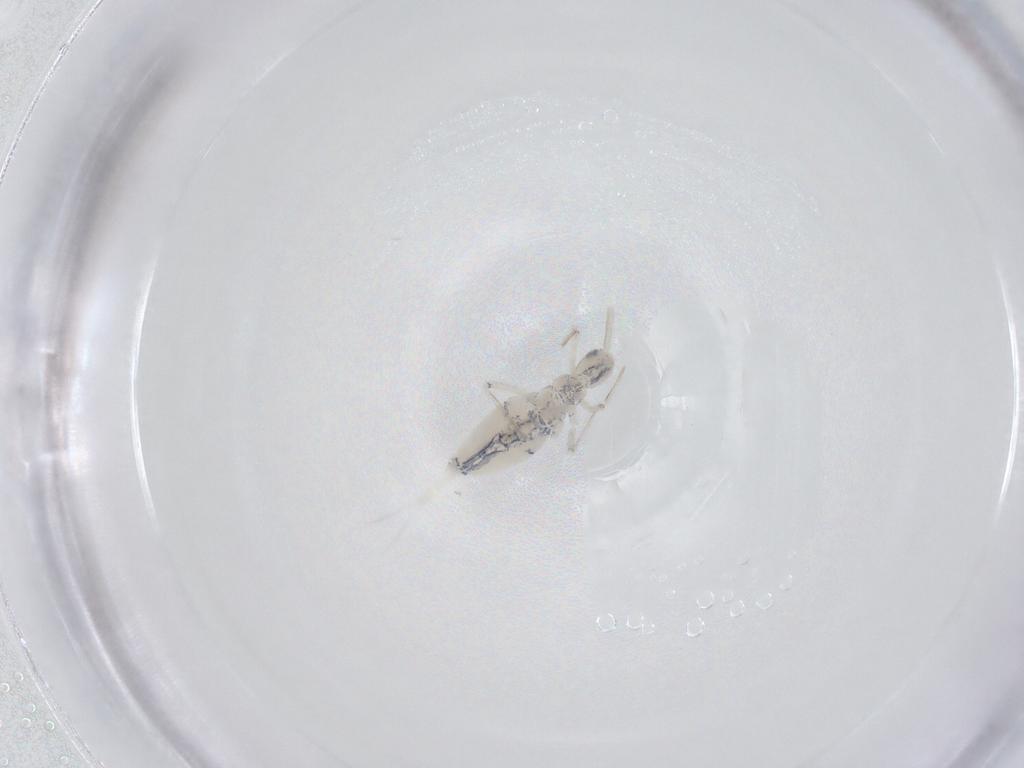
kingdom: Animalia
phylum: Arthropoda
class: Collembola
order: Entomobryomorpha
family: Paronellidae
